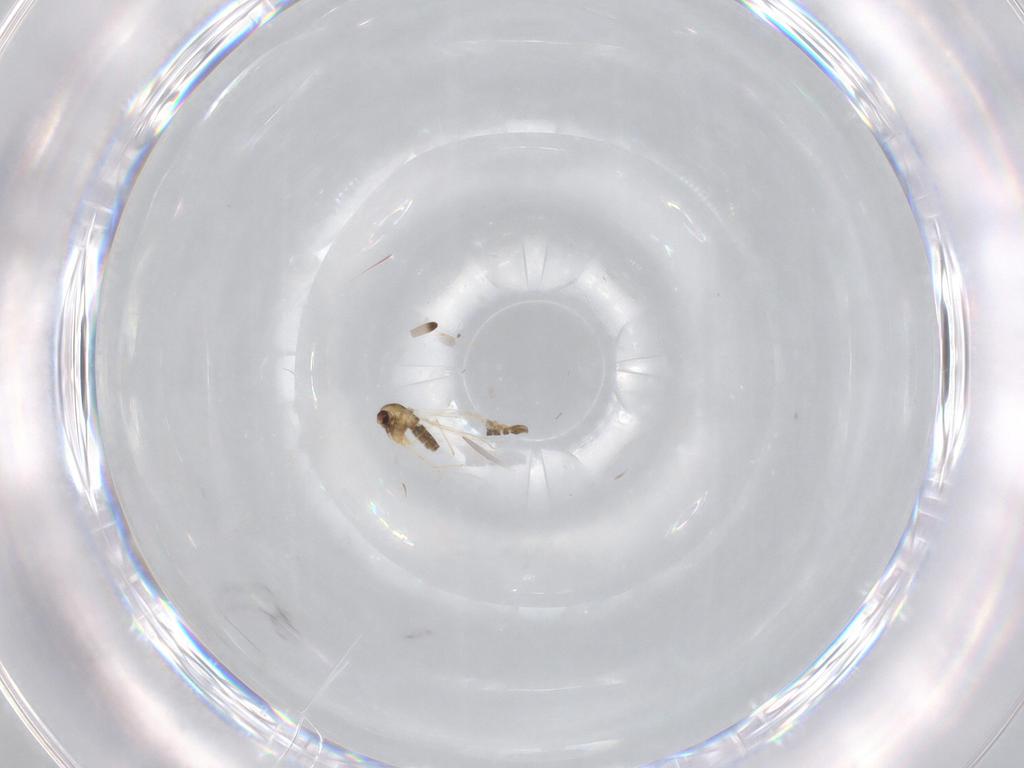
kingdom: Animalia
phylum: Arthropoda
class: Insecta
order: Diptera
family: Chironomidae
